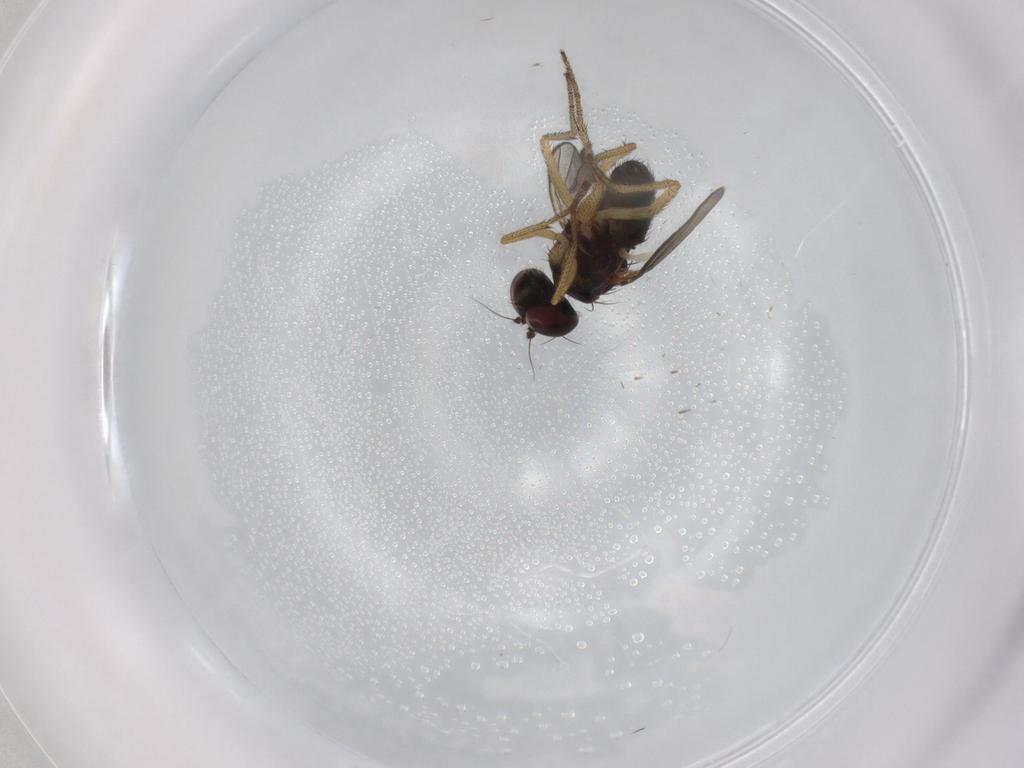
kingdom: Animalia
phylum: Arthropoda
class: Insecta
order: Diptera
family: Dolichopodidae
